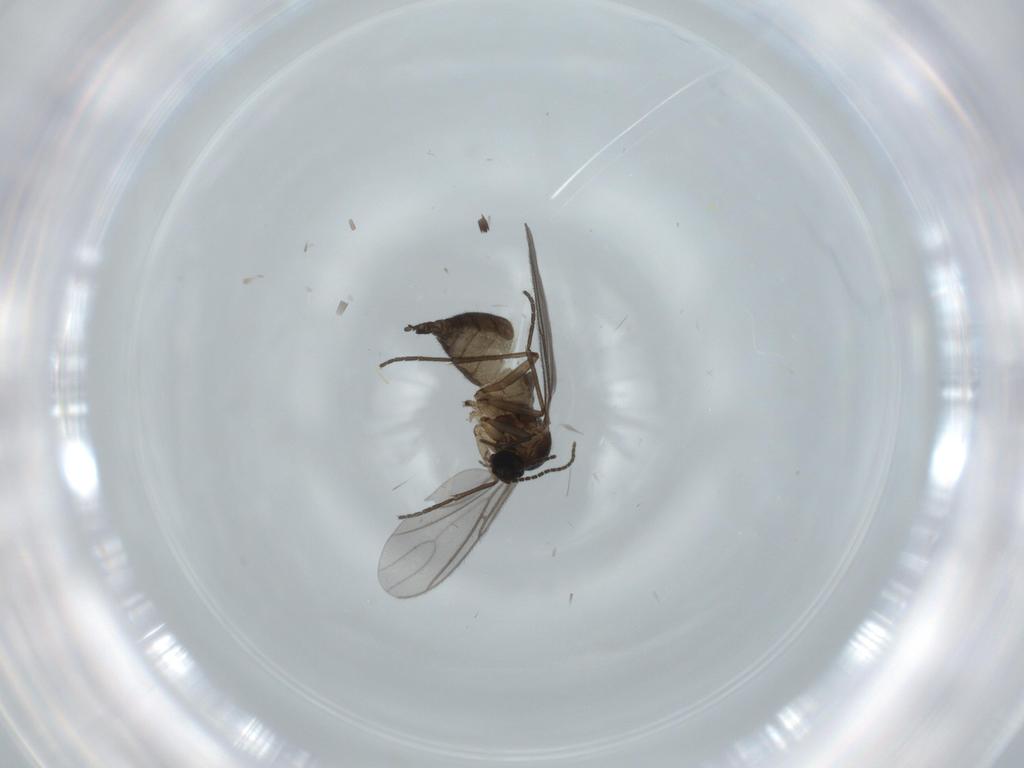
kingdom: Animalia
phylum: Arthropoda
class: Insecta
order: Diptera
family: Sciaridae
